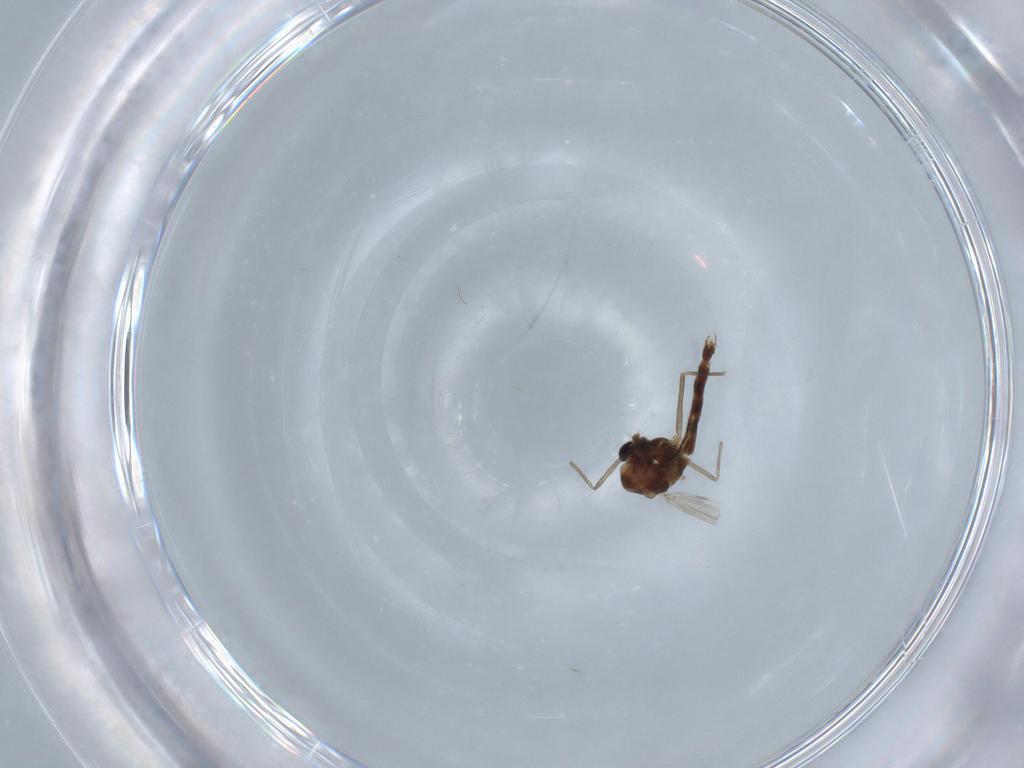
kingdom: Animalia
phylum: Arthropoda
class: Insecta
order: Diptera
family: Chironomidae
